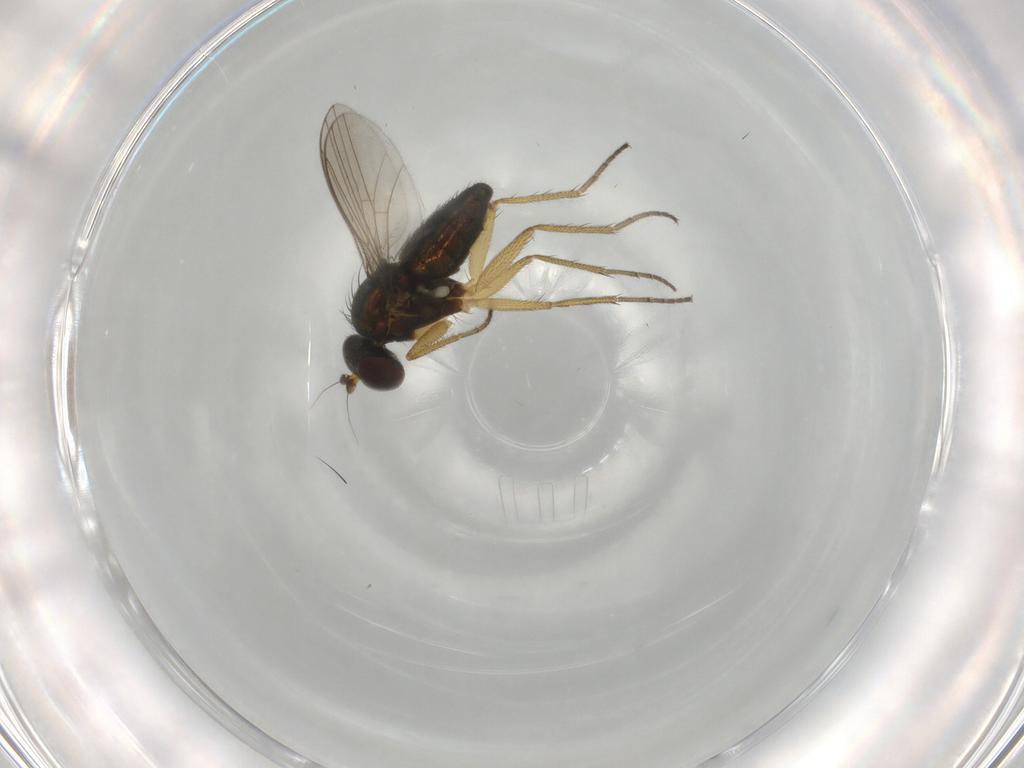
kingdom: Animalia
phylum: Arthropoda
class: Insecta
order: Diptera
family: Dolichopodidae
